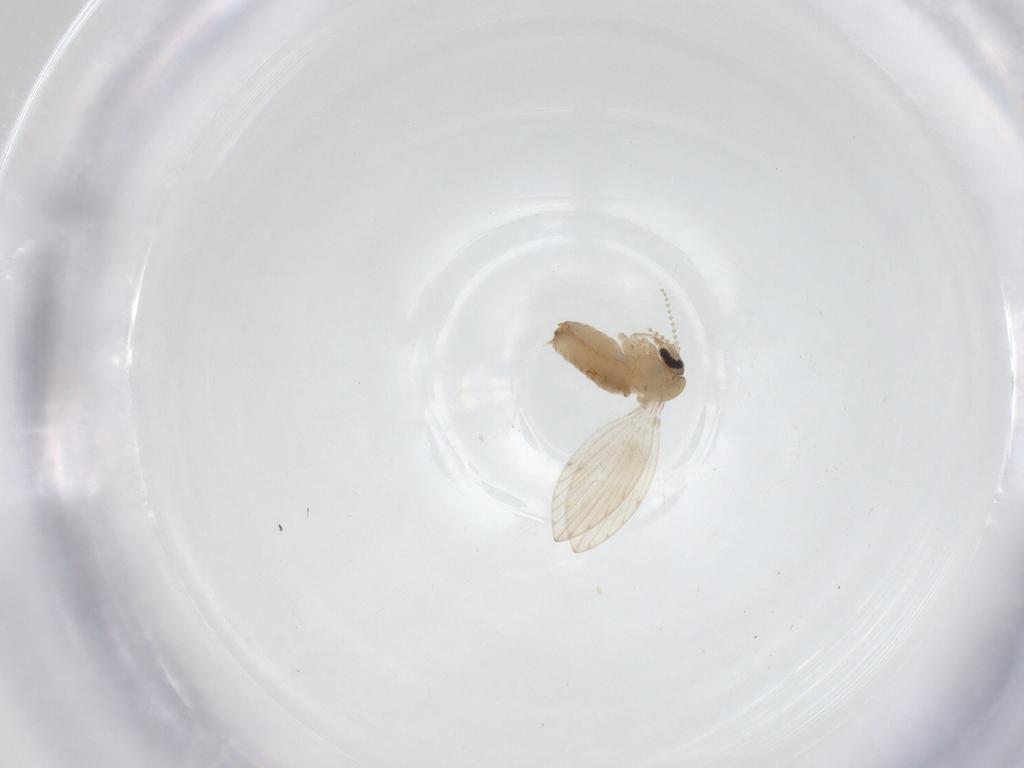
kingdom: Animalia
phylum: Arthropoda
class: Insecta
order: Diptera
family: Psychodidae
